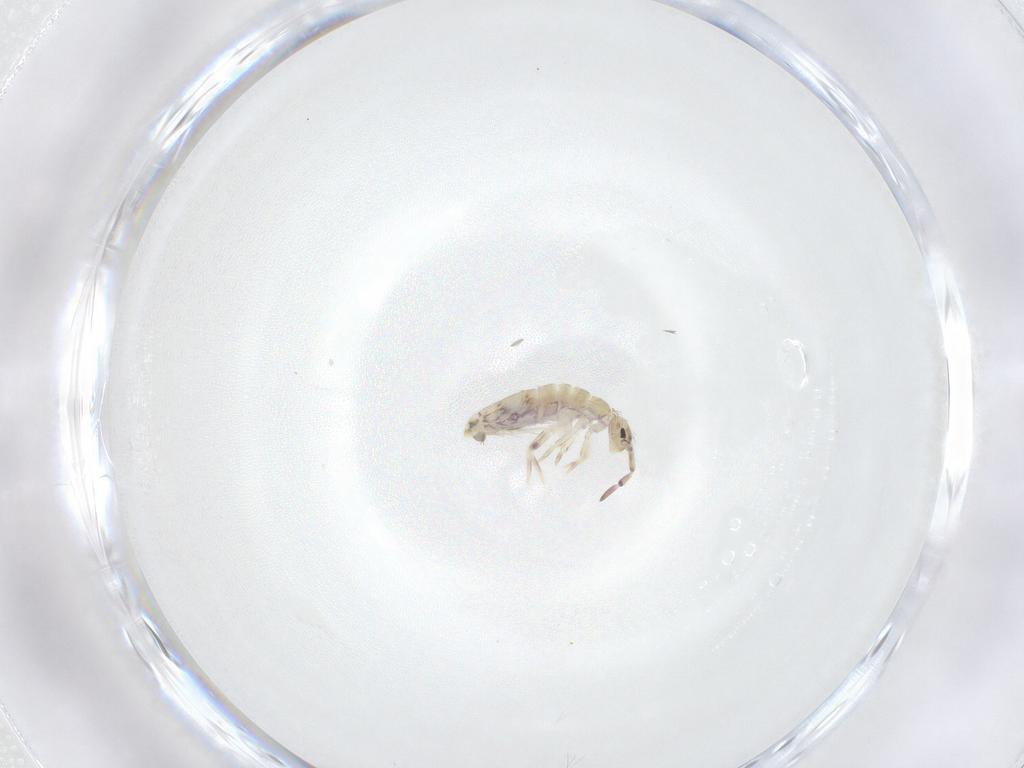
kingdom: Animalia
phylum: Arthropoda
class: Collembola
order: Entomobryomorpha
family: Entomobryidae
